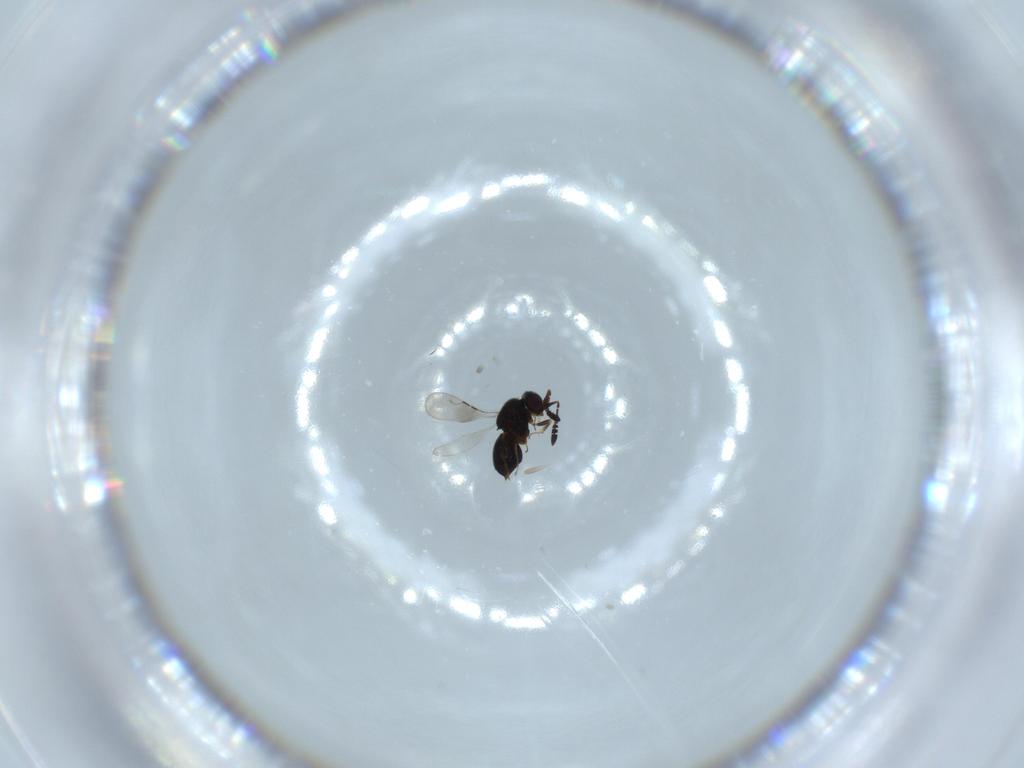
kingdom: Animalia
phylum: Arthropoda
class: Insecta
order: Hymenoptera
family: Ceraphronidae
